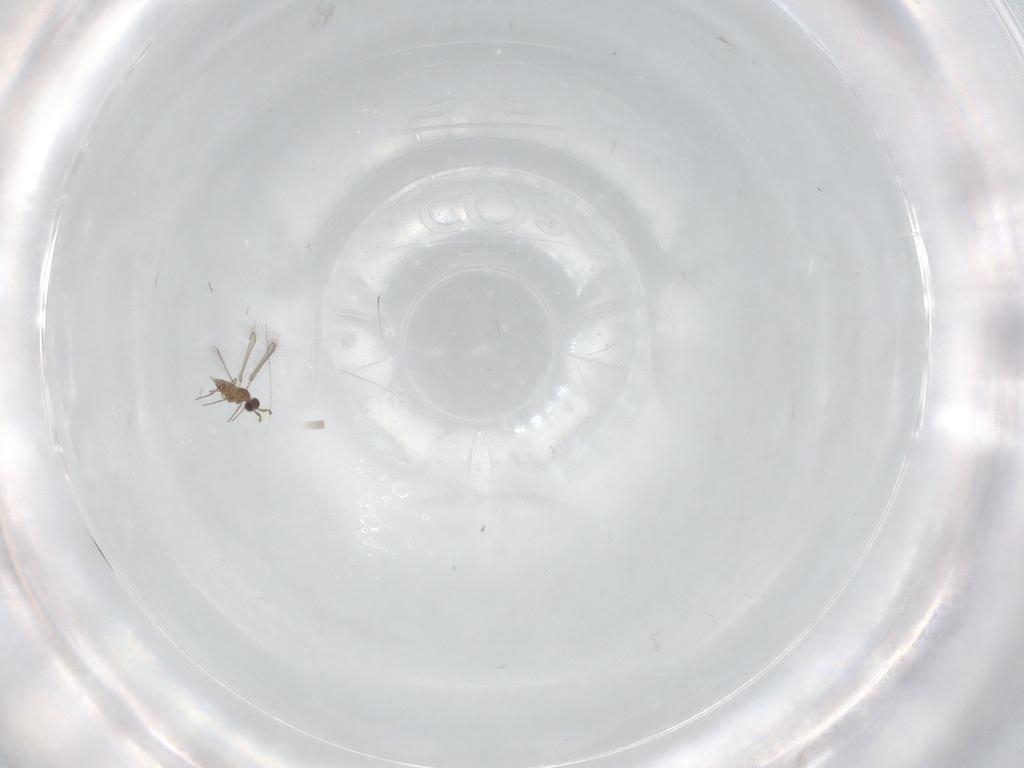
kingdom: Animalia
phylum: Arthropoda
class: Insecta
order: Hymenoptera
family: Mymaridae
